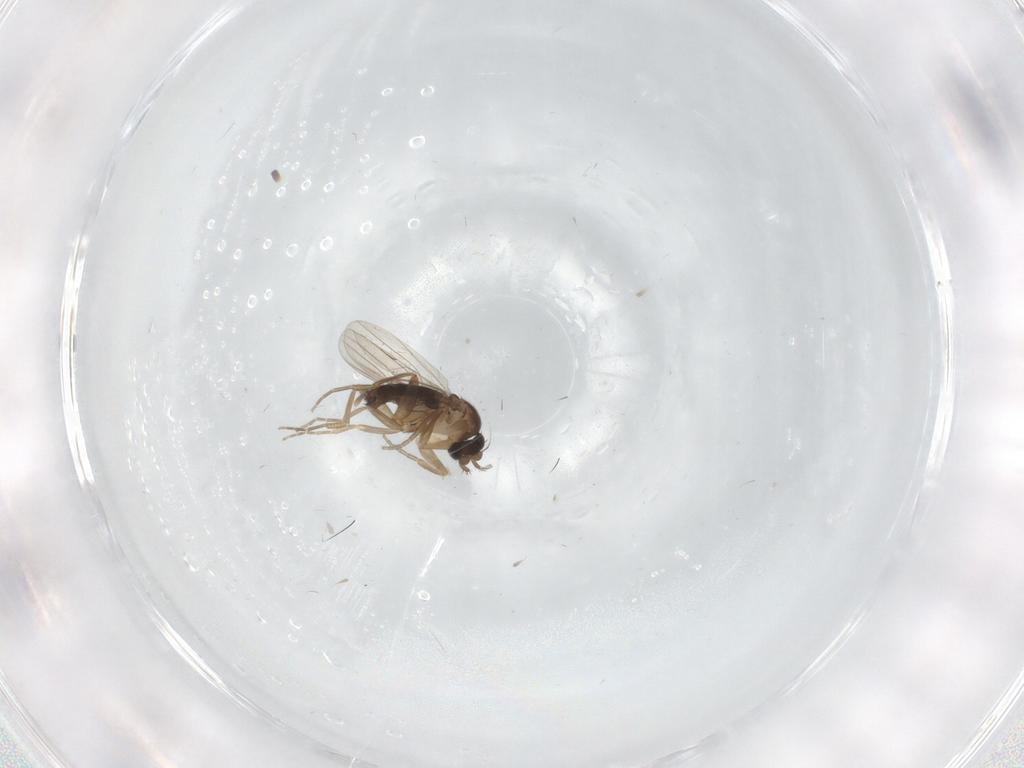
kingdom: Animalia
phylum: Arthropoda
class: Insecta
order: Diptera
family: Phoridae
